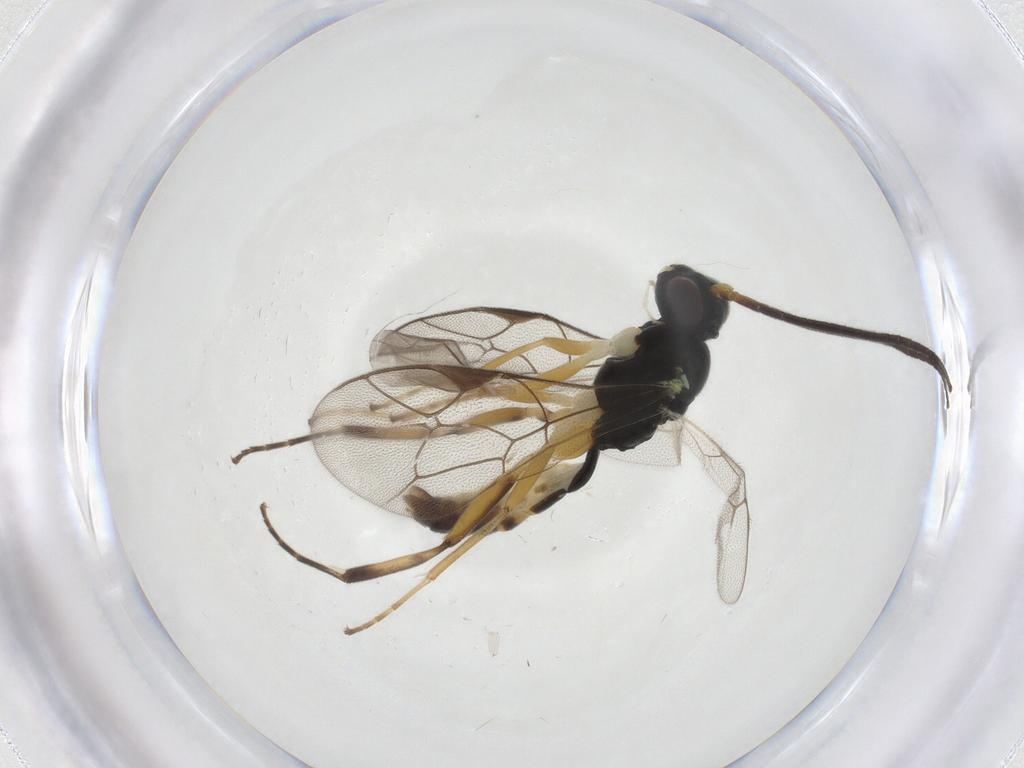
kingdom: Animalia
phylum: Arthropoda
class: Insecta
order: Hymenoptera
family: Ichneumonidae
